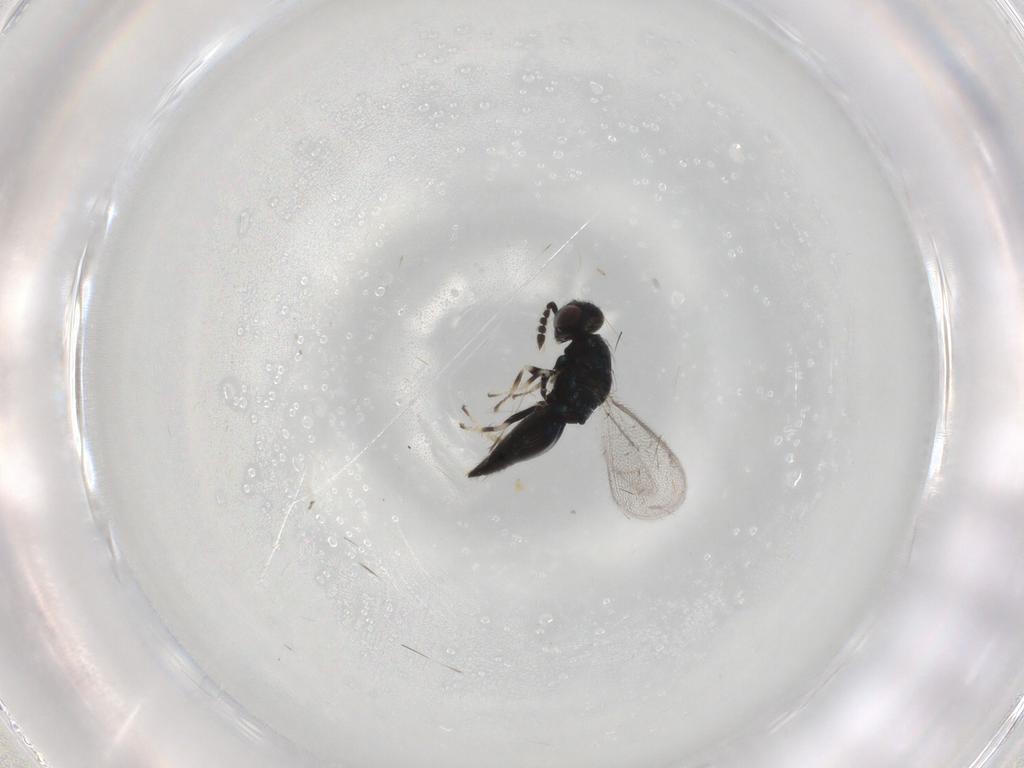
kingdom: Animalia
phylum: Arthropoda
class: Insecta
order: Hymenoptera
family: Eulophidae
